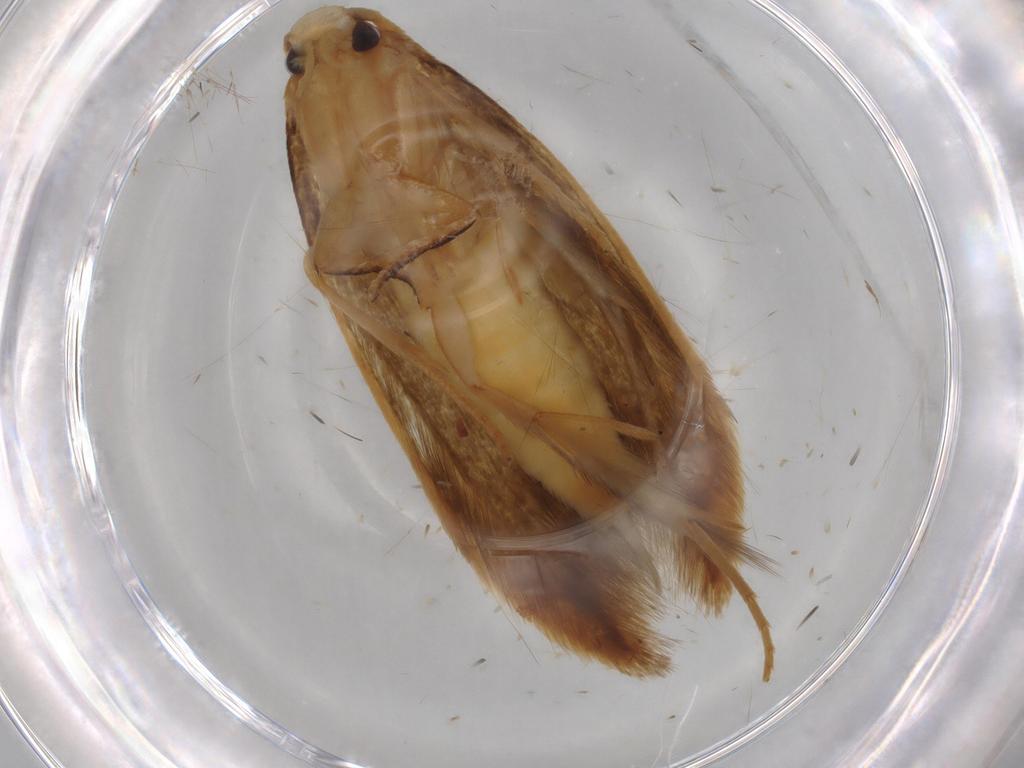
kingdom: Animalia
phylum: Arthropoda
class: Insecta
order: Lepidoptera
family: Tineidae
